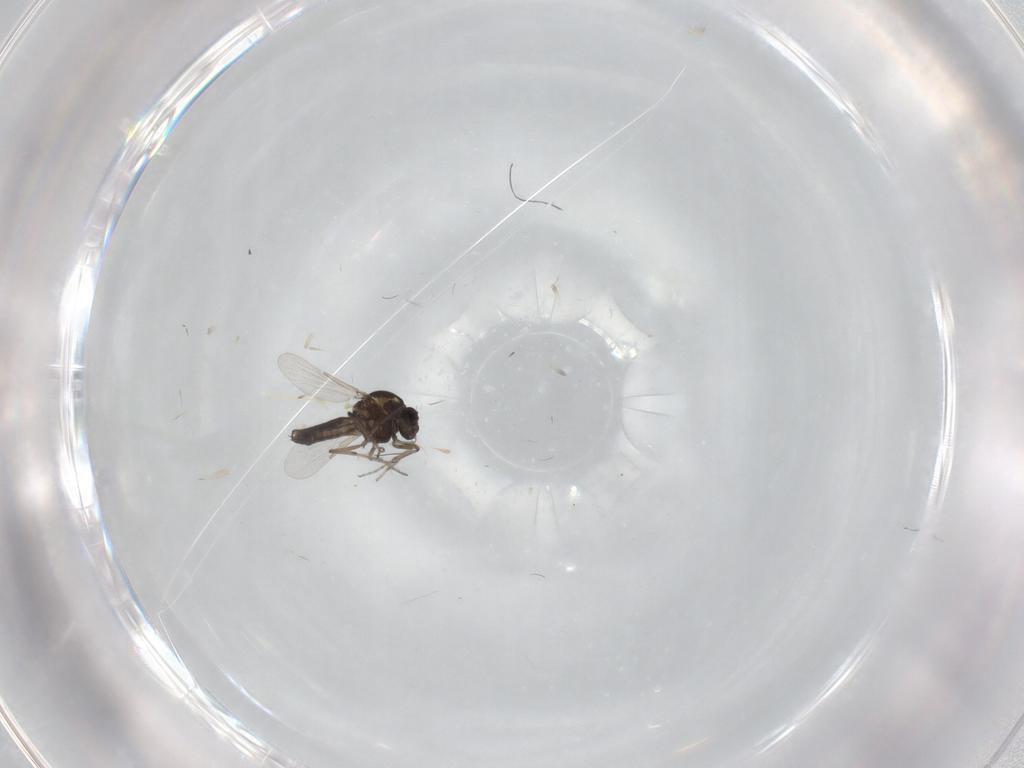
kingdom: Animalia
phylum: Arthropoda
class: Insecta
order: Diptera
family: Ceratopogonidae
